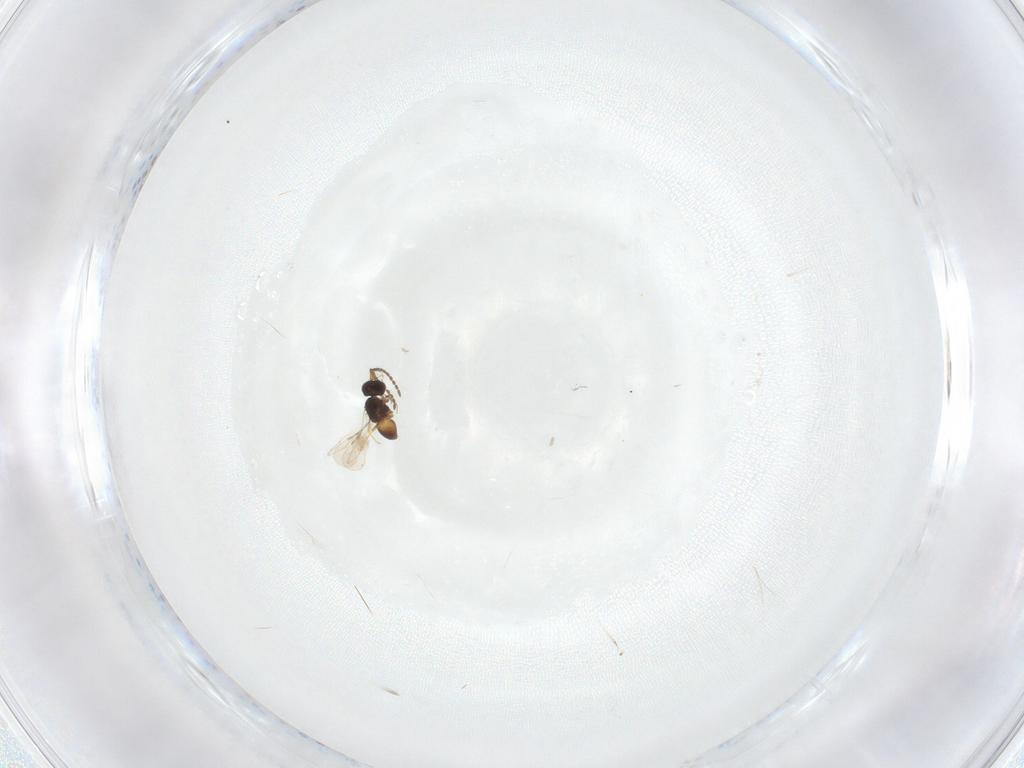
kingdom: Animalia
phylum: Arthropoda
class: Insecta
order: Hymenoptera
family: Bethylidae
